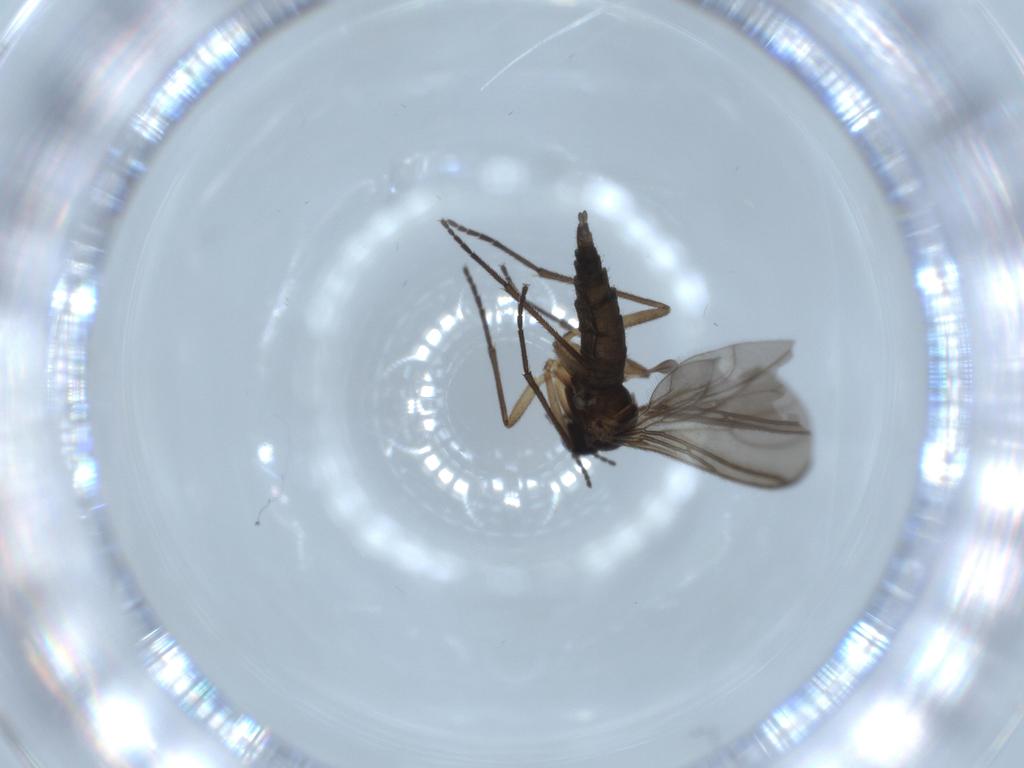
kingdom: Animalia
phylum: Arthropoda
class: Insecta
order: Diptera
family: Sciaridae
